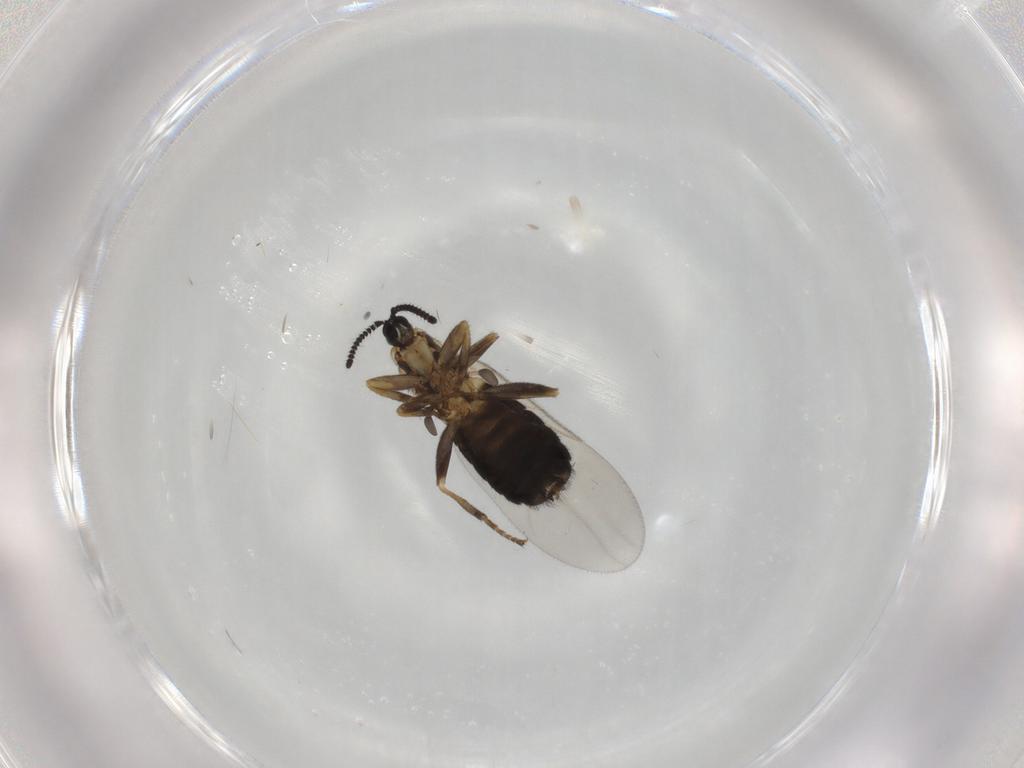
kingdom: Animalia
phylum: Arthropoda
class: Insecta
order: Diptera
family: Scatopsidae
